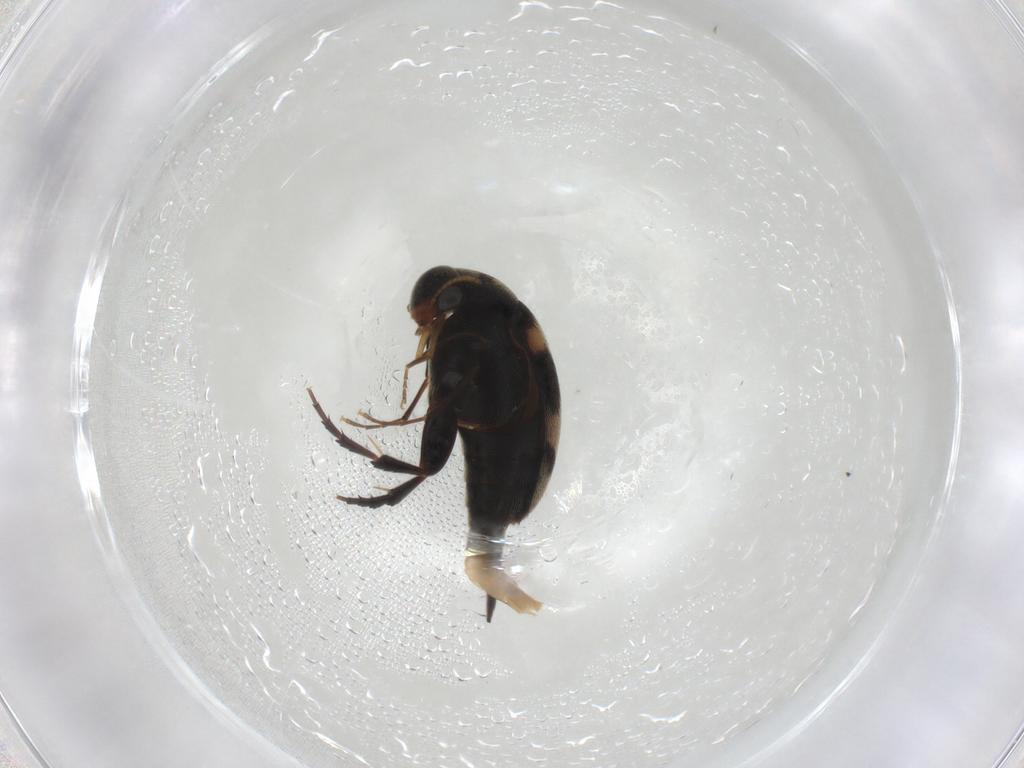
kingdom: Animalia
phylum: Arthropoda
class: Insecta
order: Coleoptera
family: Mordellidae
